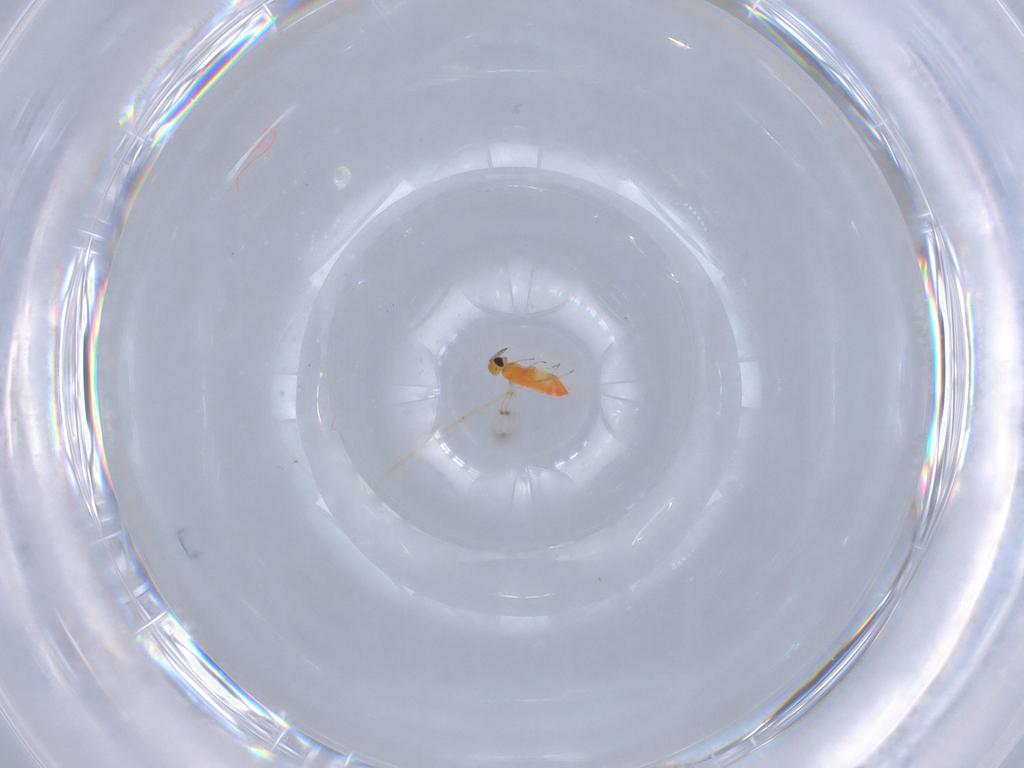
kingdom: Animalia
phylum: Arthropoda
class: Insecta
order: Hymenoptera
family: Trichogrammatidae
